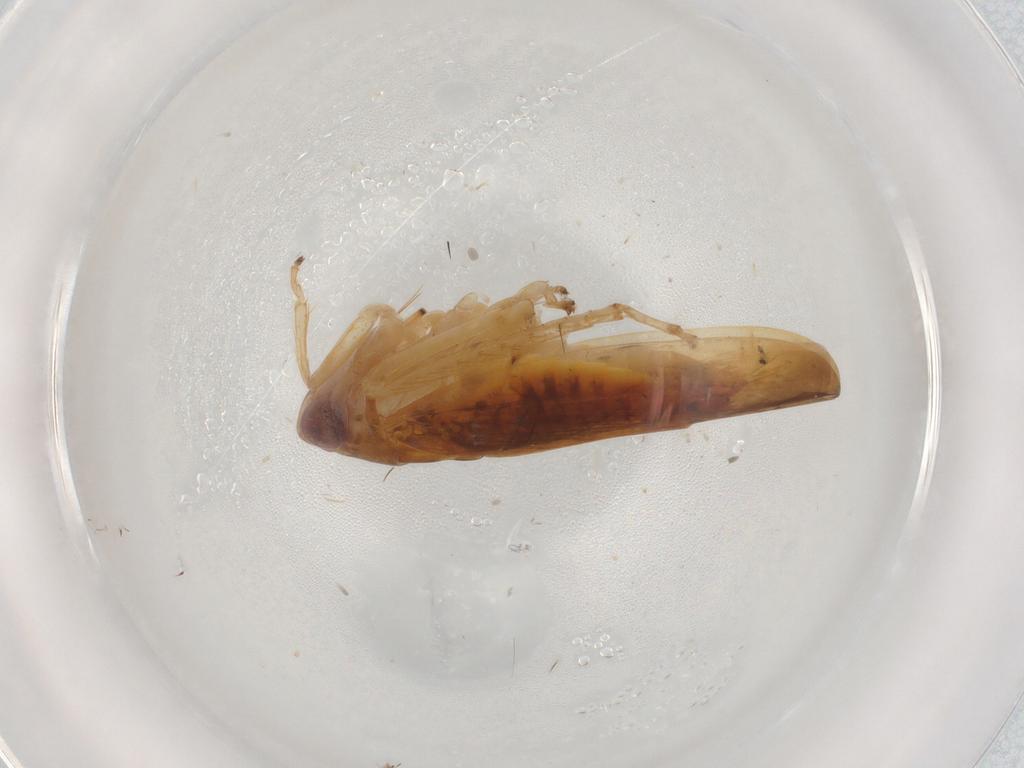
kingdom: Animalia
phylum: Arthropoda
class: Insecta
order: Hemiptera
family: Cicadellidae
